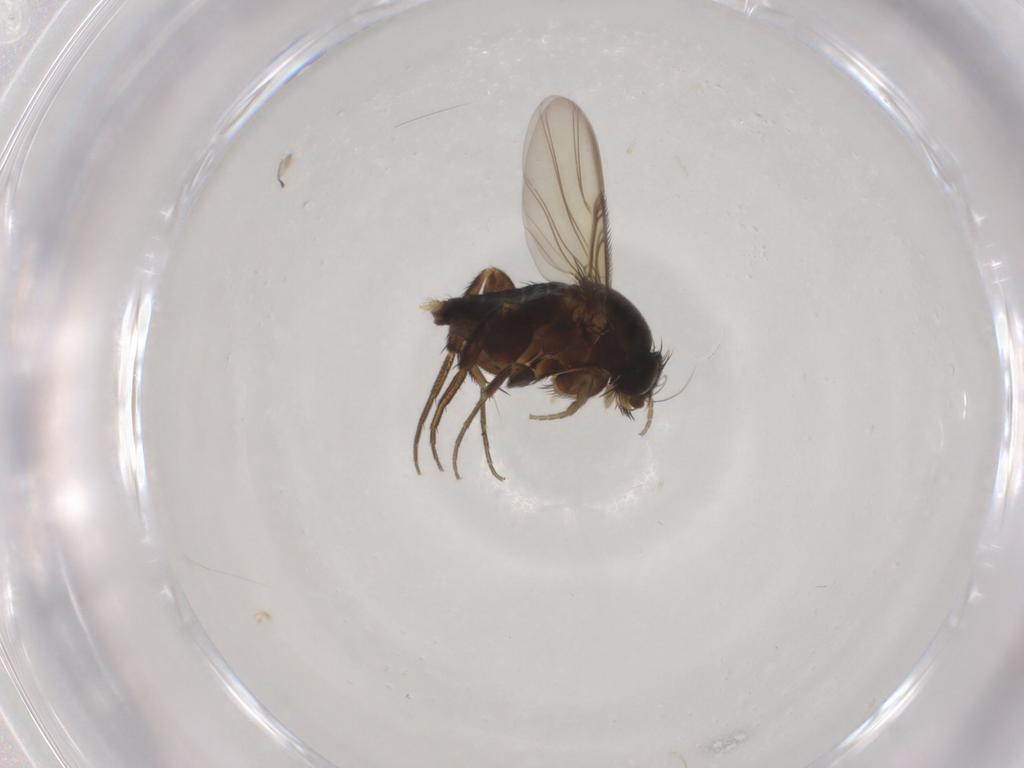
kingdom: Animalia
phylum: Arthropoda
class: Insecta
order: Diptera
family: Phoridae
